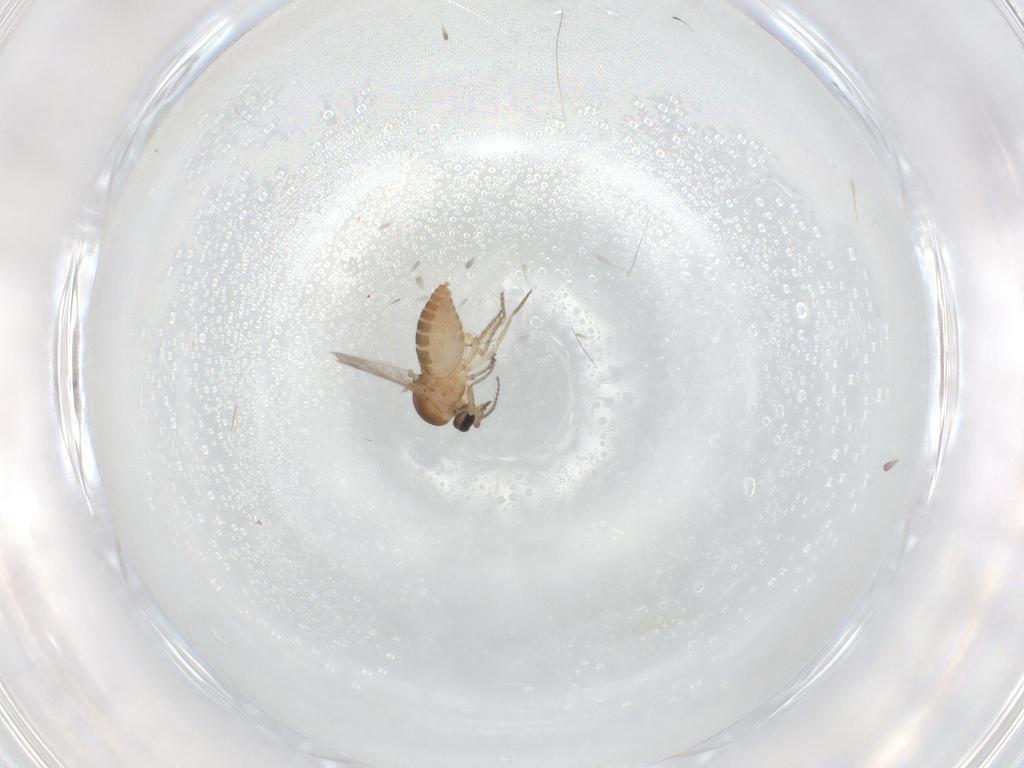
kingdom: Animalia
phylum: Arthropoda
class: Insecta
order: Diptera
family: Ceratopogonidae
